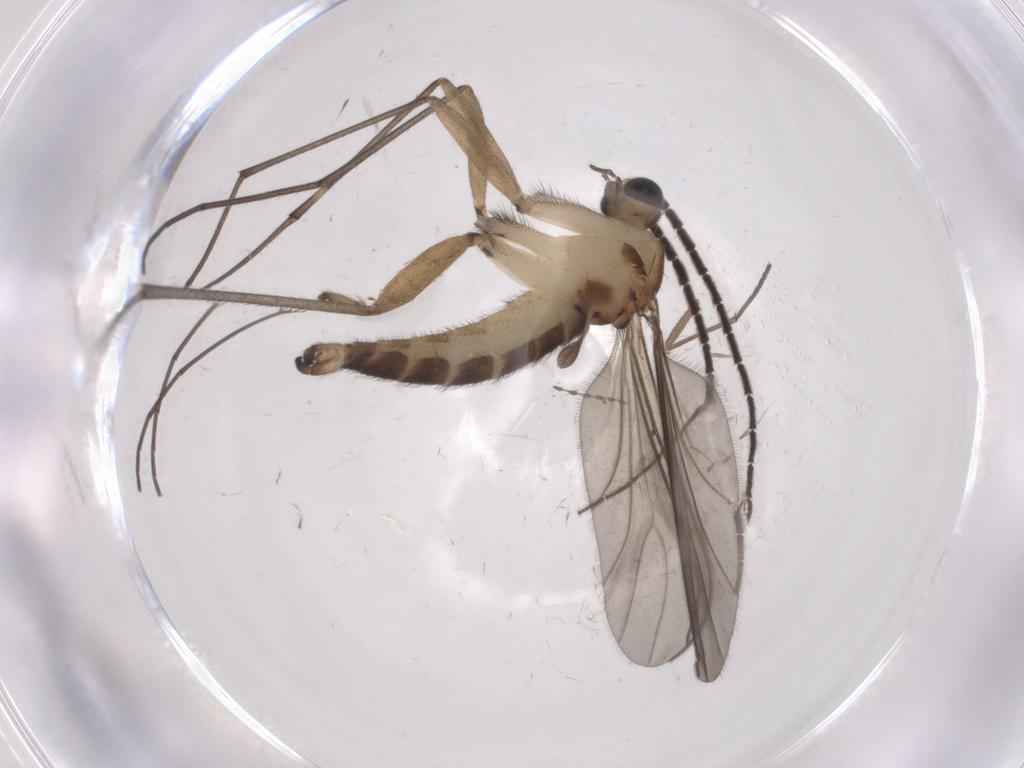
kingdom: Animalia
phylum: Arthropoda
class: Insecta
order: Diptera
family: Sciaridae
